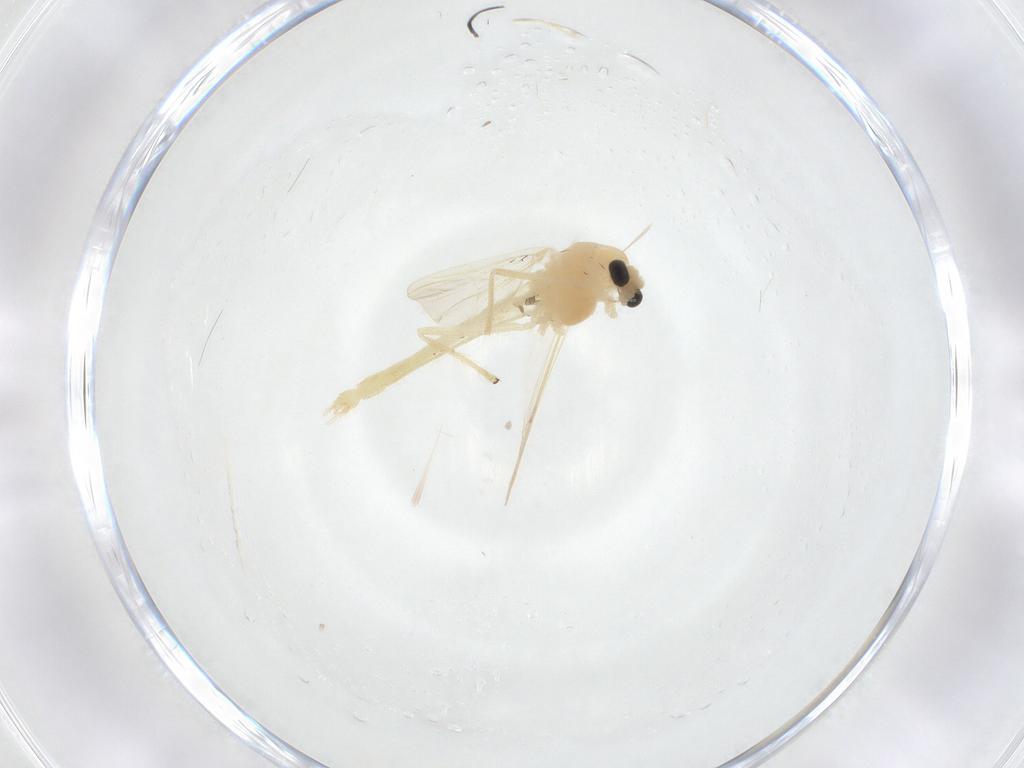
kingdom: Animalia
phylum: Arthropoda
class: Insecta
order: Diptera
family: Chironomidae
